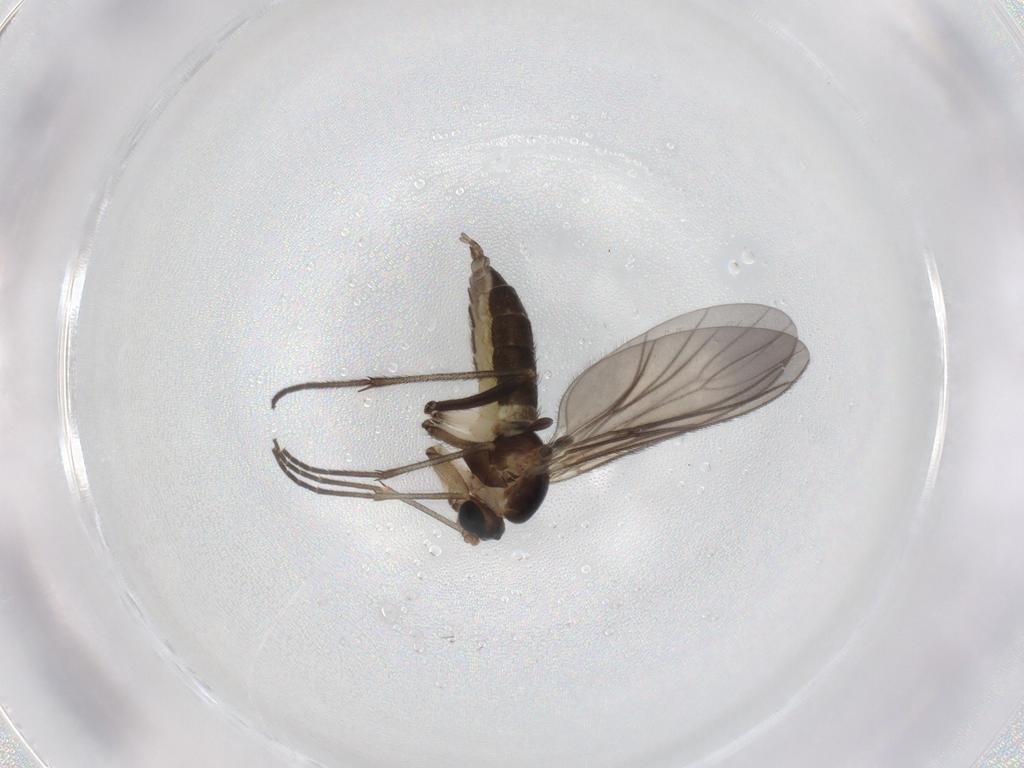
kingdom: Animalia
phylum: Arthropoda
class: Insecta
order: Diptera
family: Sciaridae
